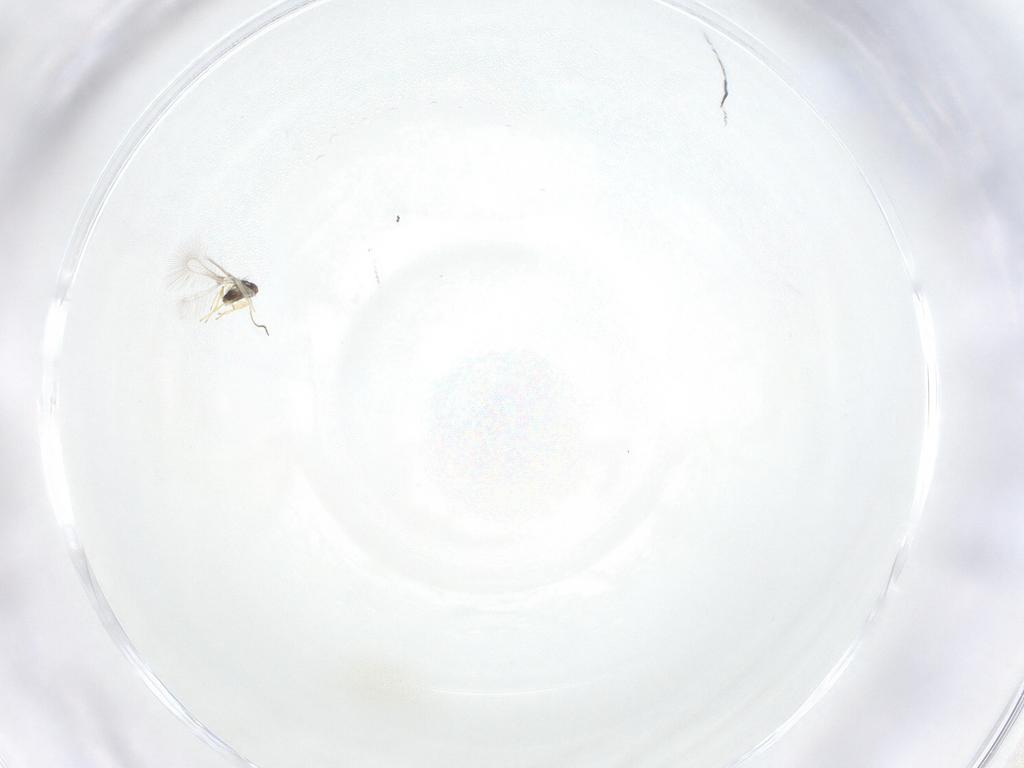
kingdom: Animalia
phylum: Arthropoda
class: Insecta
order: Hymenoptera
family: Mymaridae
